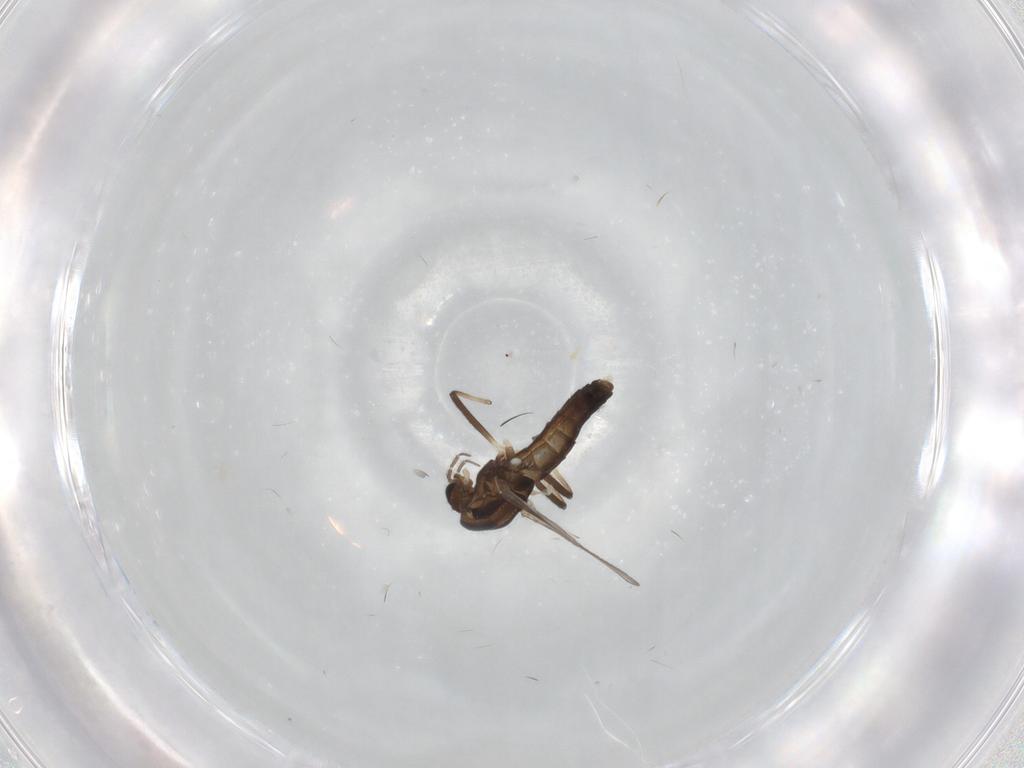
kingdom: Animalia
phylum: Arthropoda
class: Insecta
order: Diptera
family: Chironomidae
